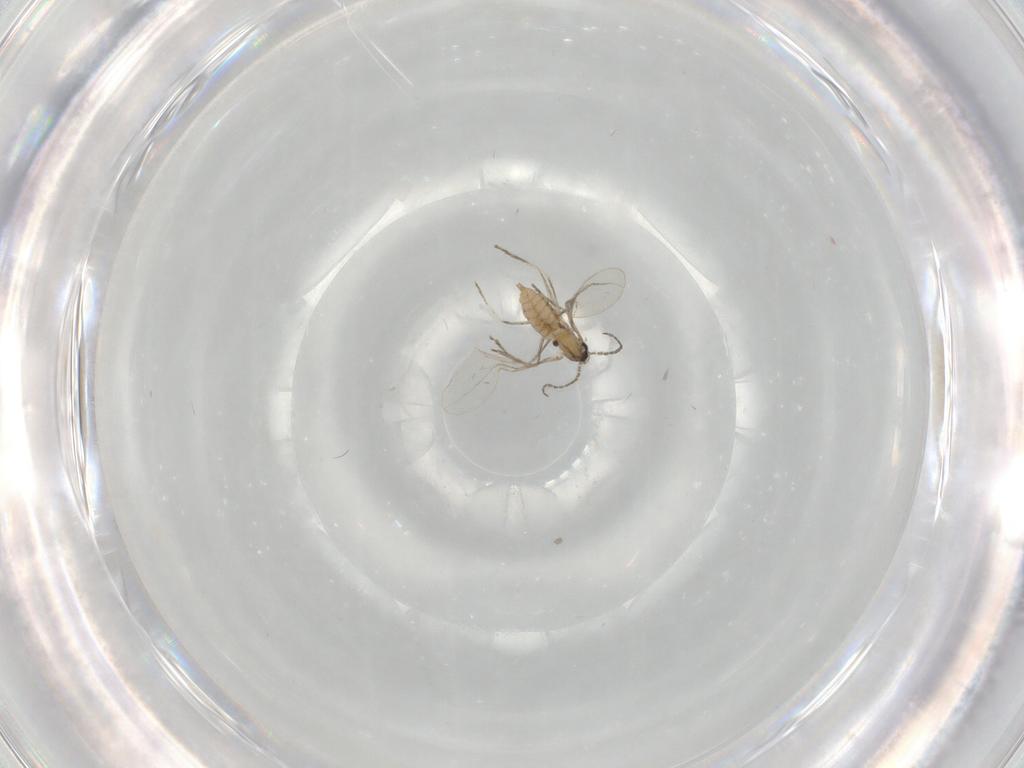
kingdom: Animalia
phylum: Arthropoda
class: Insecta
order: Diptera
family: Cecidomyiidae
